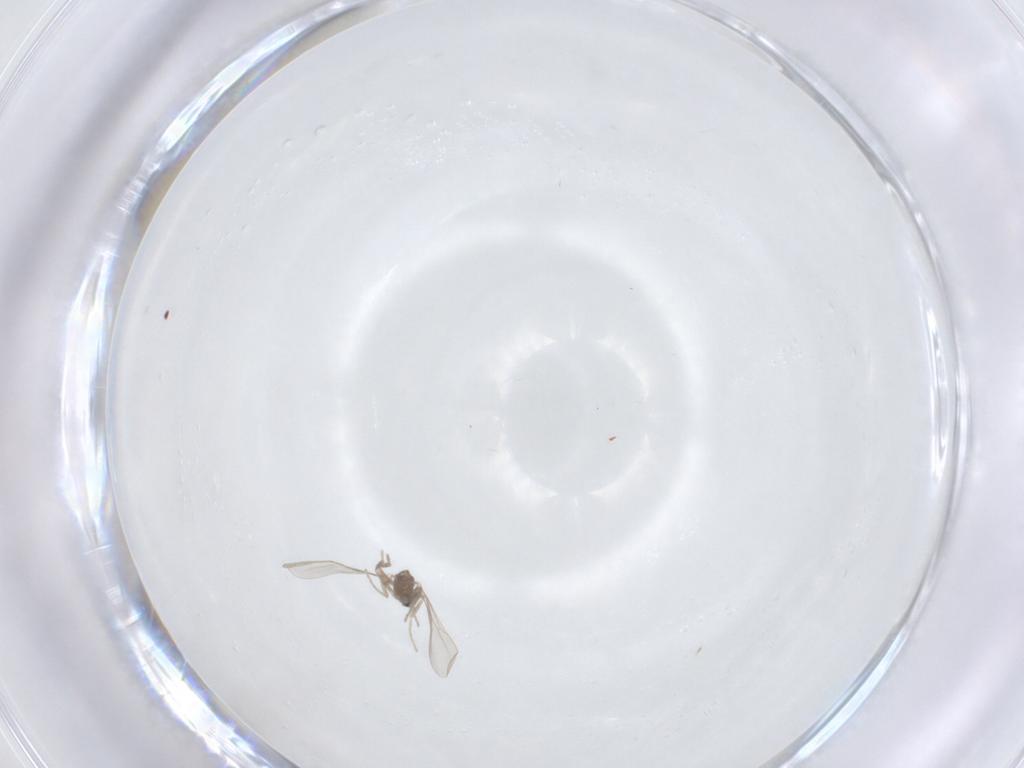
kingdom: Animalia
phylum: Arthropoda
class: Insecta
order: Diptera
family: Cecidomyiidae
